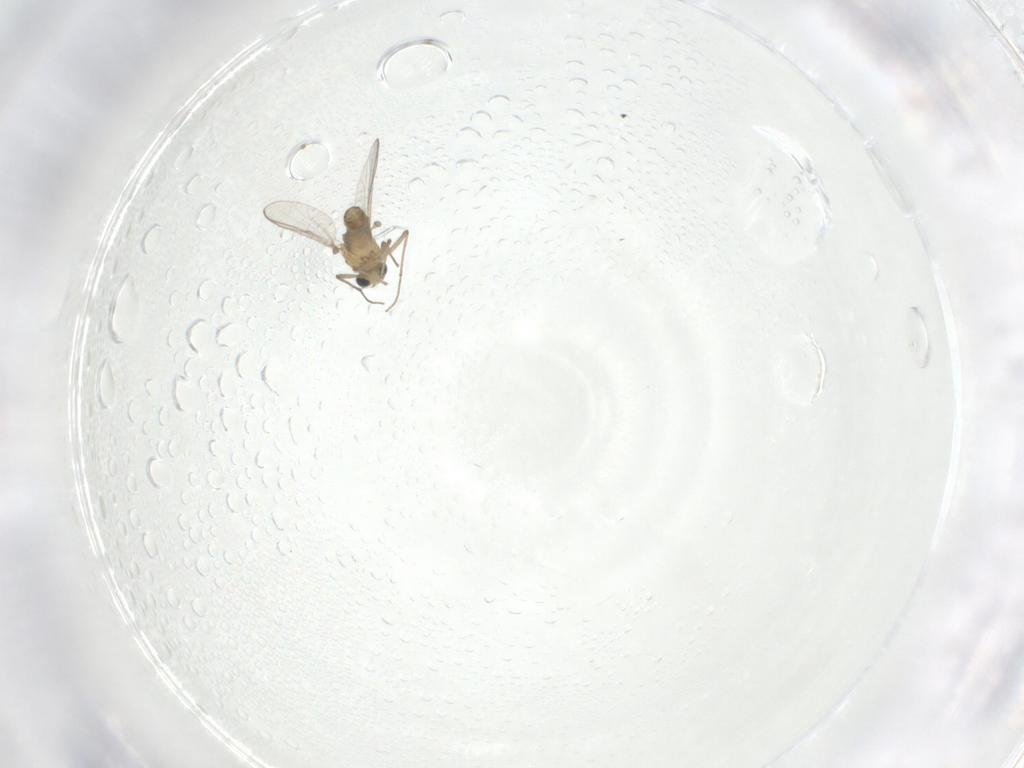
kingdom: Animalia
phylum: Arthropoda
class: Insecta
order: Diptera
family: Chironomidae
